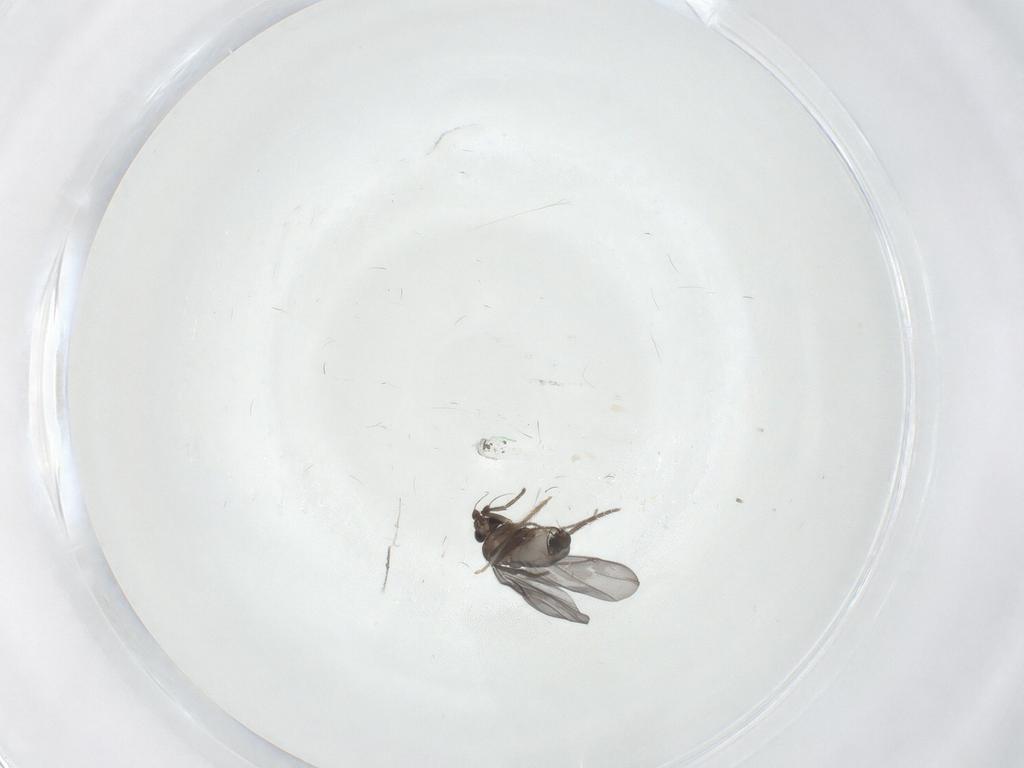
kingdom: Animalia
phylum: Arthropoda
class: Insecta
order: Diptera
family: Phoridae
